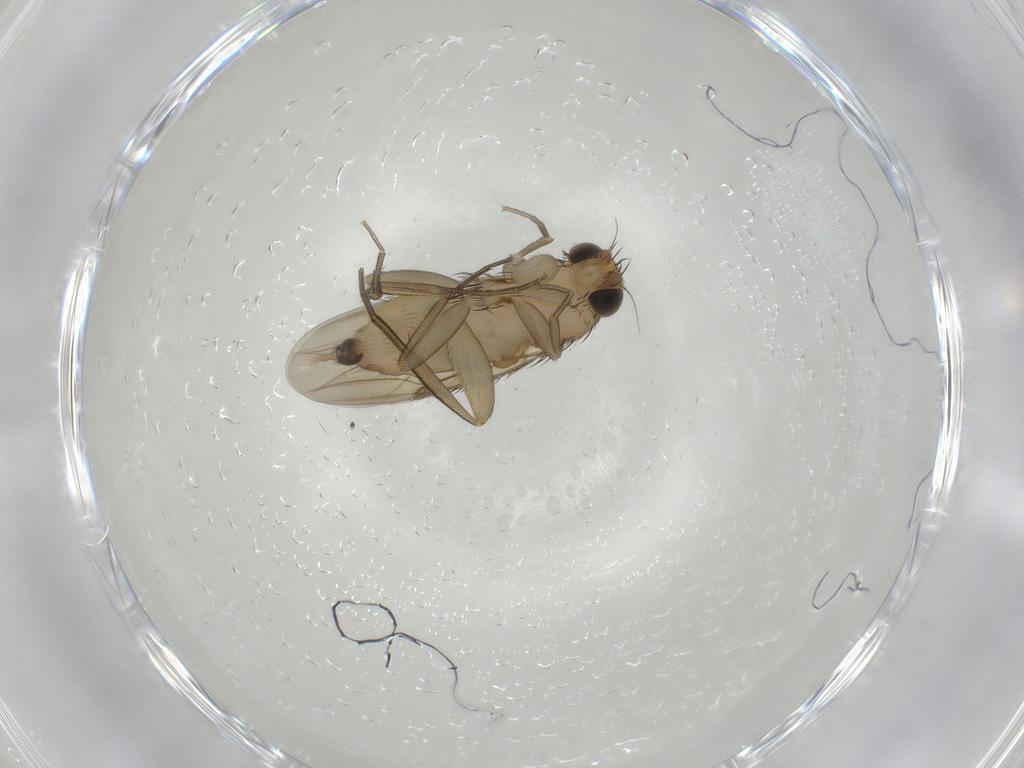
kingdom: Animalia
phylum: Arthropoda
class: Insecta
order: Diptera
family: Phoridae
